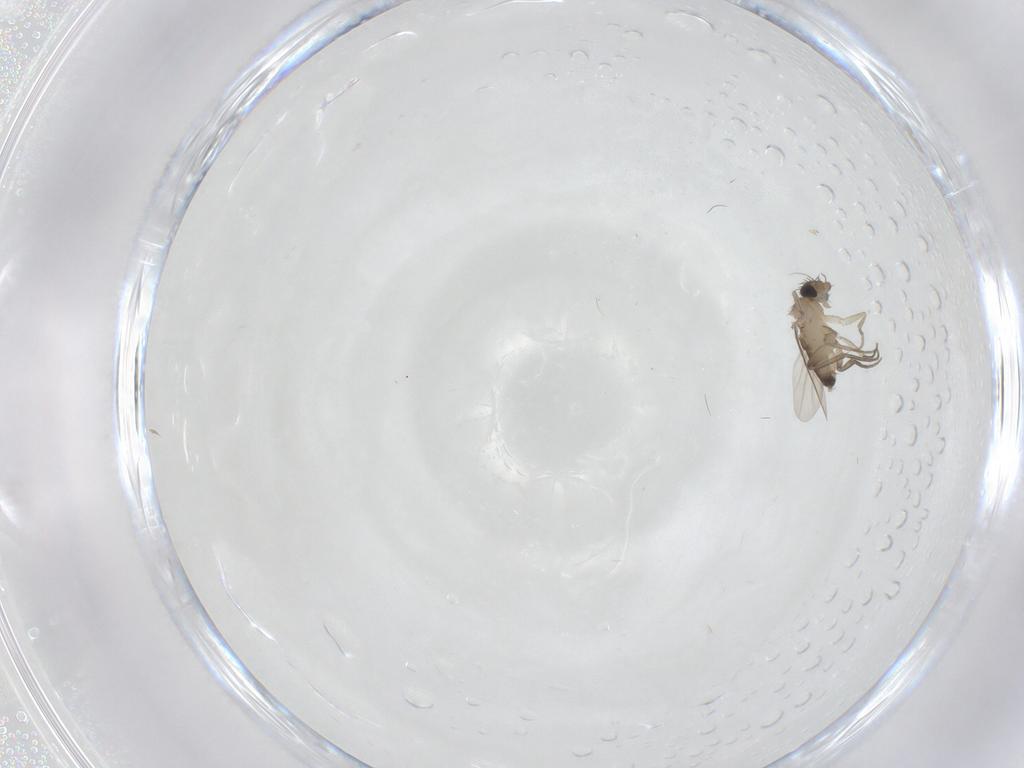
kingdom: Animalia
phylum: Arthropoda
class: Insecta
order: Diptera
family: Phoridae
